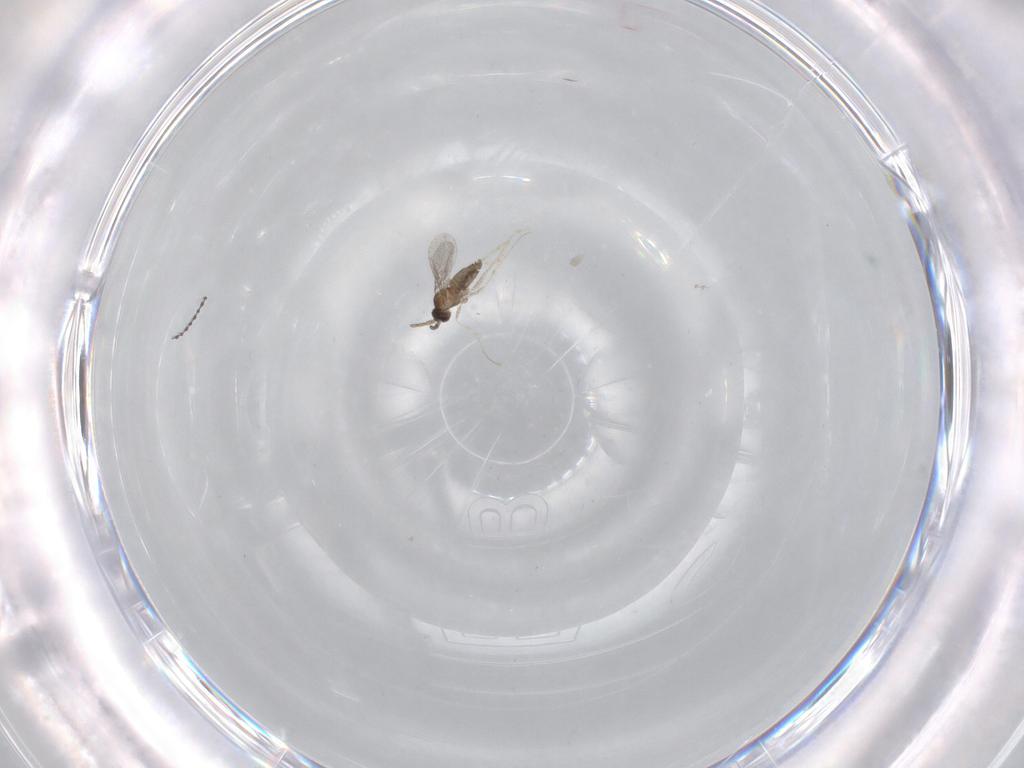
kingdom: Animalia
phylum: Arthropoda
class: Insecta
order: Diptera
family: Cecidomyiidae
